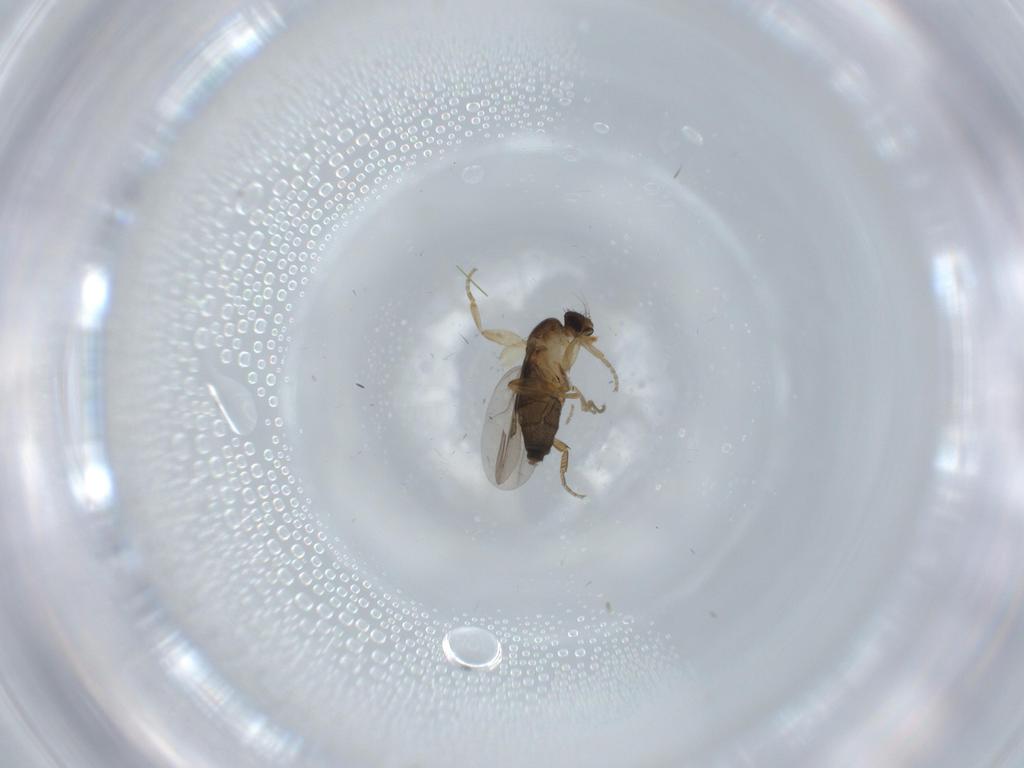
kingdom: Animalia
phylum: Arthropoda
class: Insecta
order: Diptera
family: Phoridae
